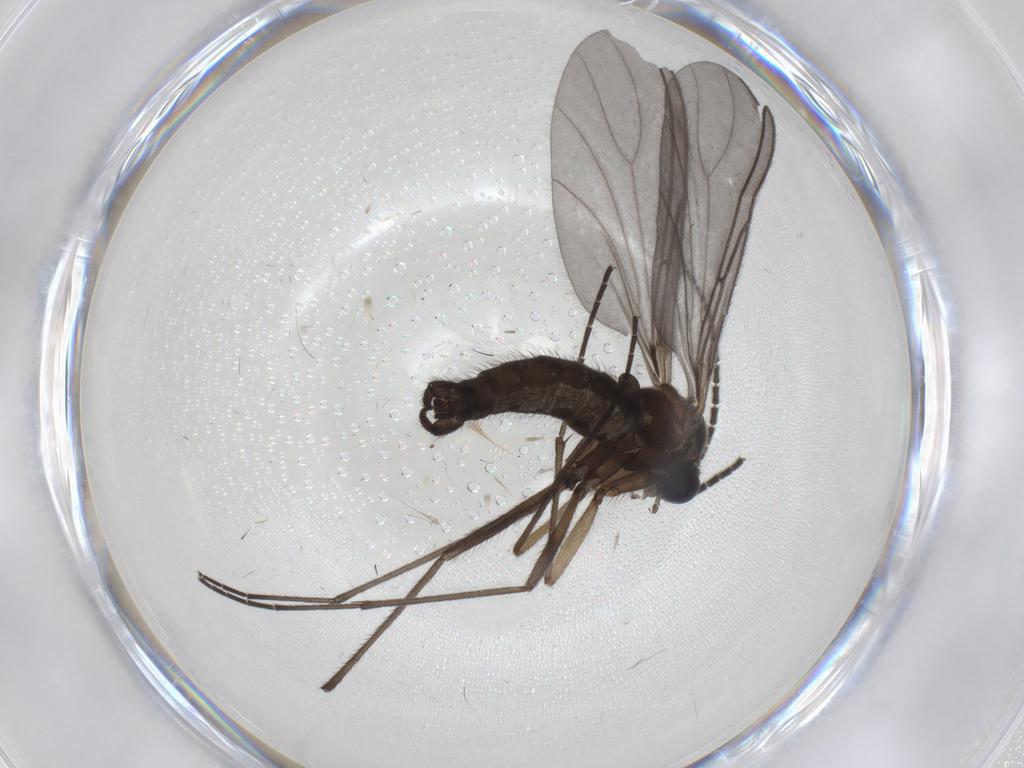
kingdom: Animalia
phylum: Arthropoda
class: Insecta
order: Diptera
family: Sciaridae
